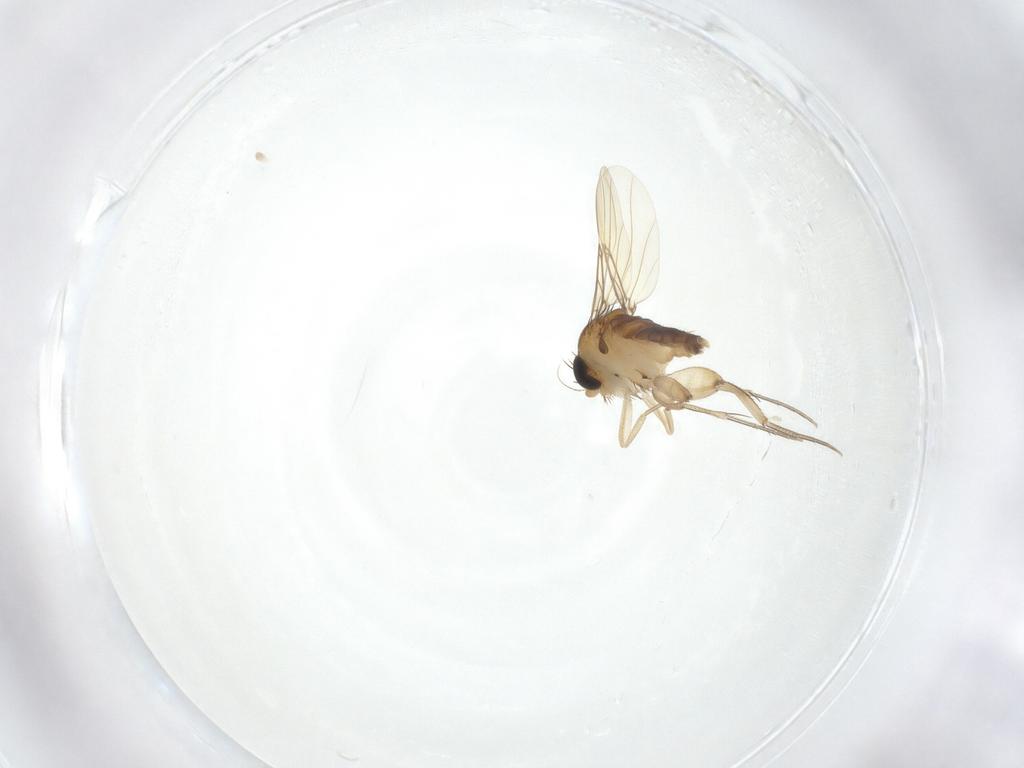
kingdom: Animalia
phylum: Arthropoda
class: Insecta
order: Diptera
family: Phoridae
